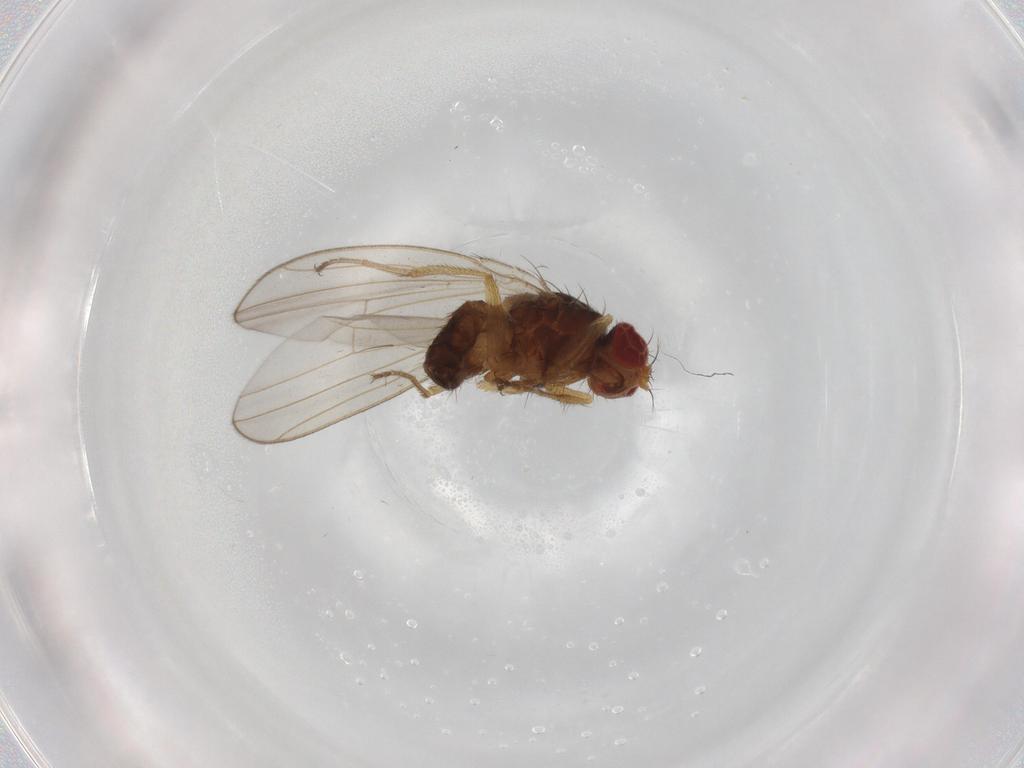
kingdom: Animalia
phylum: Arthropoda
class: Insecta
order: Diptera
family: Drosophilidae
